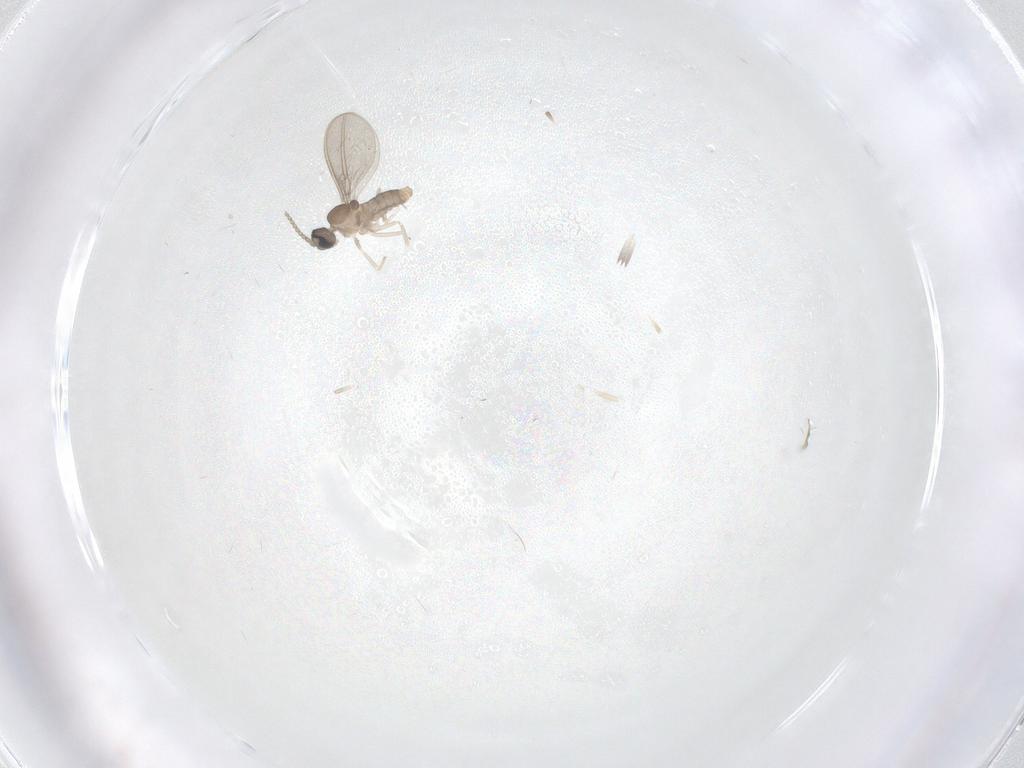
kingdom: Animalia
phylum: Arthropoda
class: Insecta
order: Diptera
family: Cecidomyiidae
